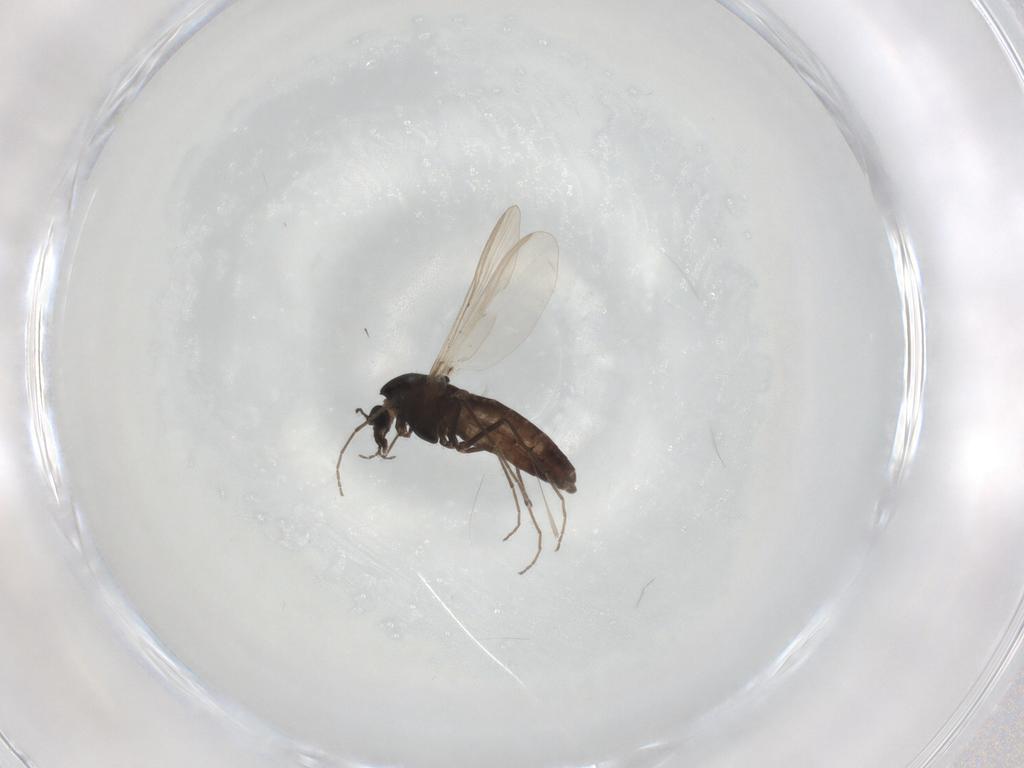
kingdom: Animalia
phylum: Arthropoda
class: Insecta
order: Diptera
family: Chironomidae
